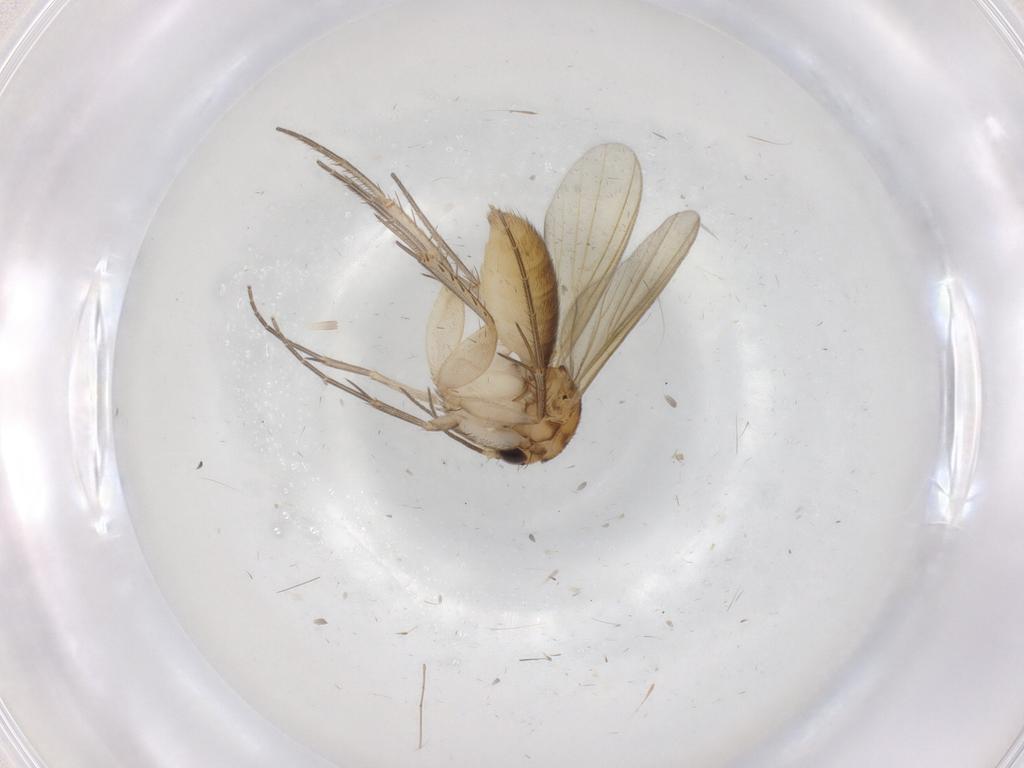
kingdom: Animalia
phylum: Arthropoda
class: Insecta
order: Diptera
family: Mycetophilidae
